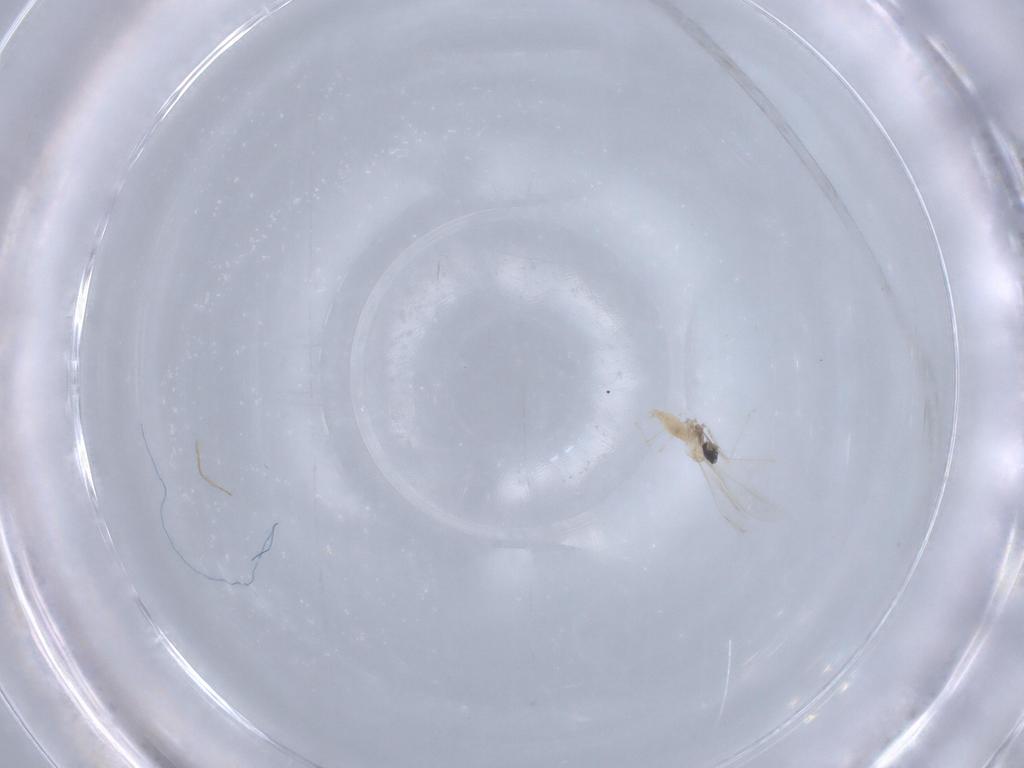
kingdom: Animalia
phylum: Arthropoda
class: Insecta
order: Diptera
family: Cecidomyiidae
